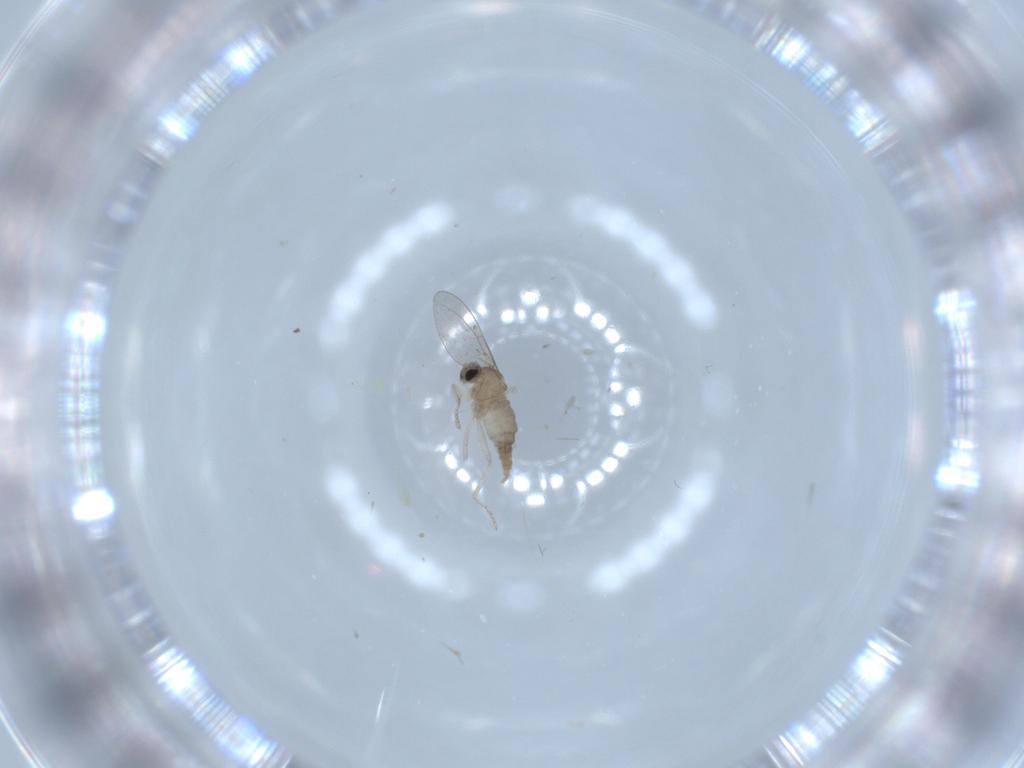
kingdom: Animalia
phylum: Arthropoda
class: Insecta
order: Diptera
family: Cecidomyiidae
